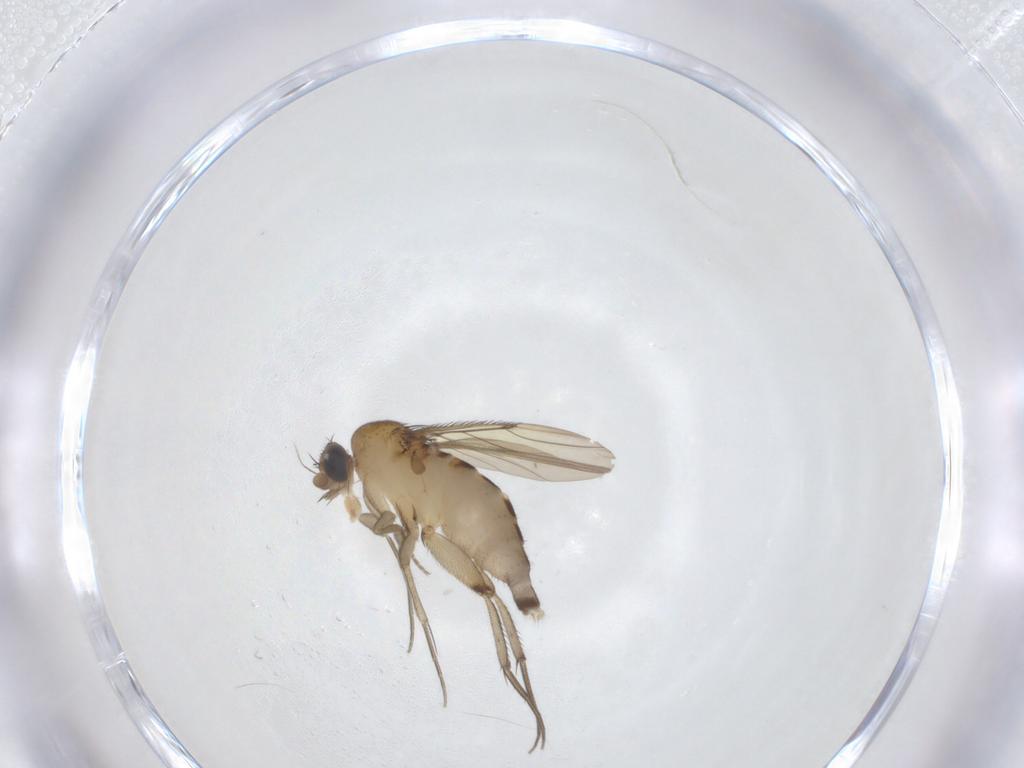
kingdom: Animalia
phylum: Arthropoda
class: Insecta
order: Diptera
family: Phoridae
